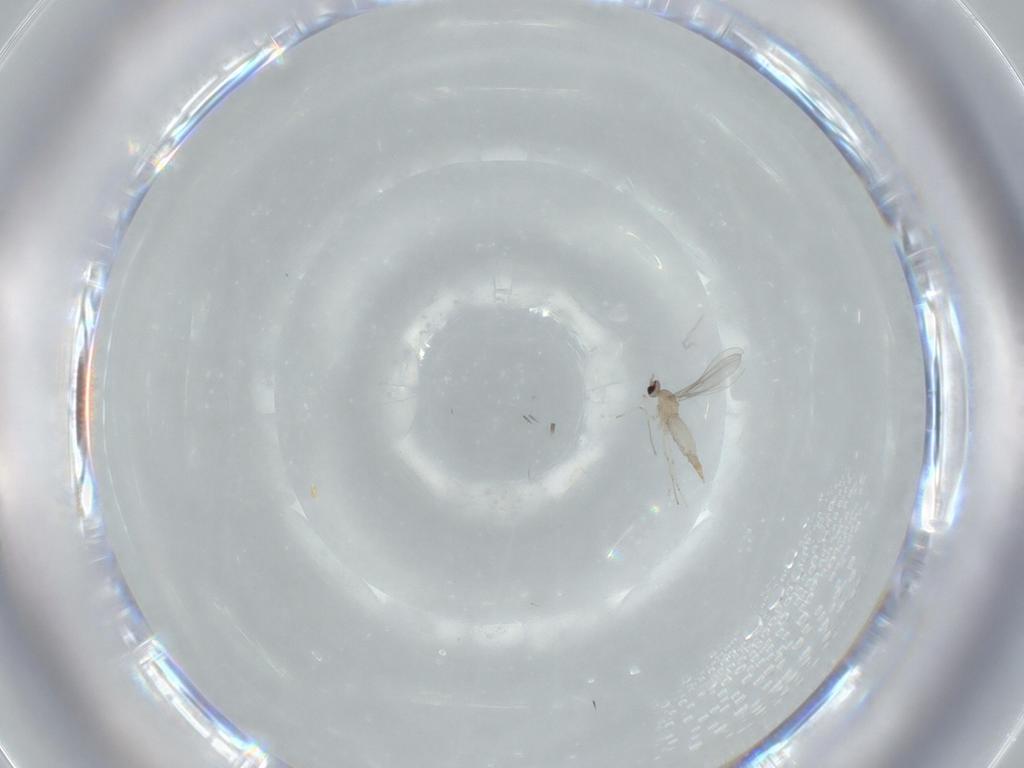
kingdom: Animalia
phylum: Arthropoda
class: Insecta
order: Diptera
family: Cecidomyiidae
